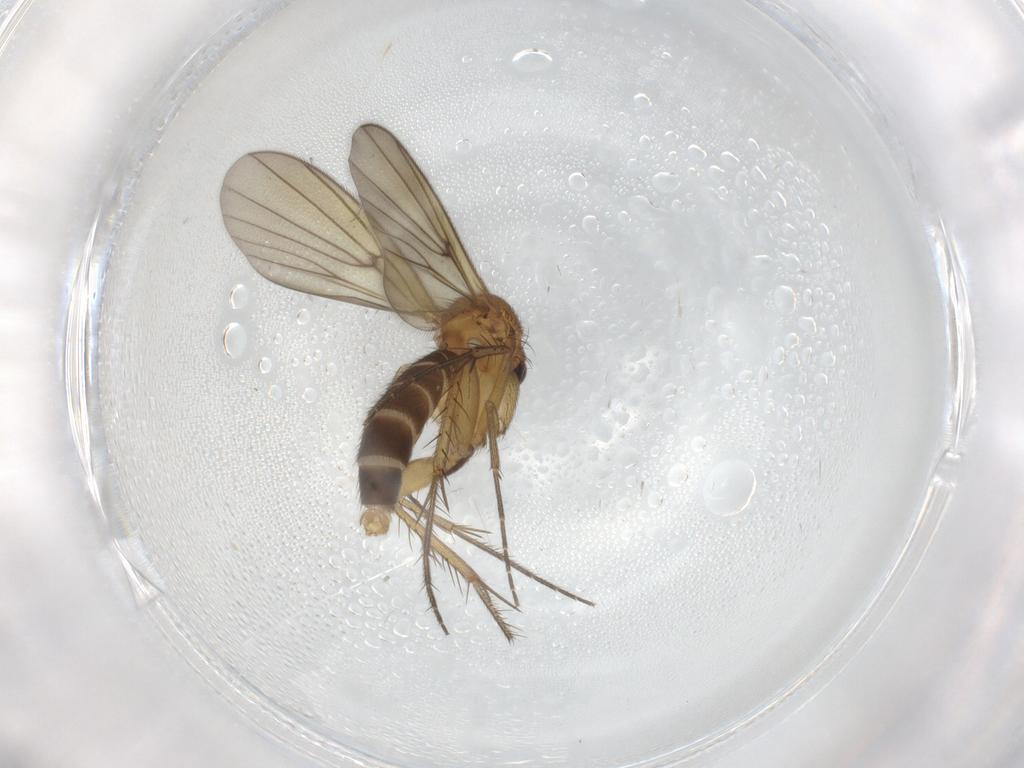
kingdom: Animalia
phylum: Arthropoda
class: Insecta
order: Diptera
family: Chironomidae
